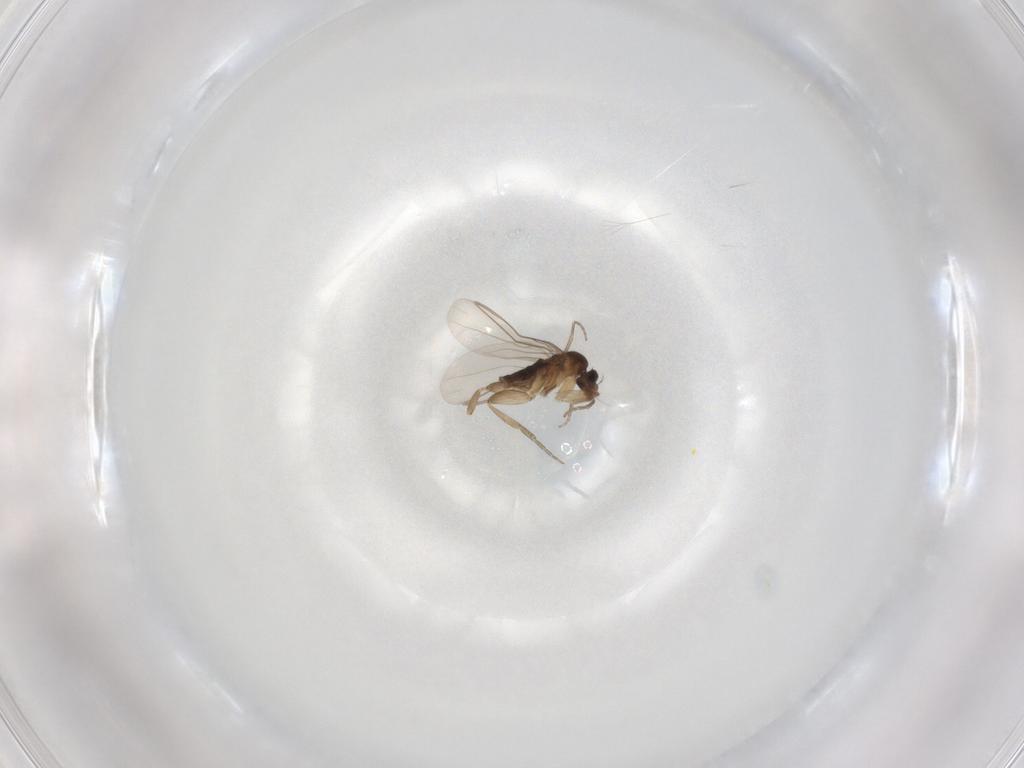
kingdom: Animalia
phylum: Arthropoda
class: Insecta
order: Diptera
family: Phoridae
